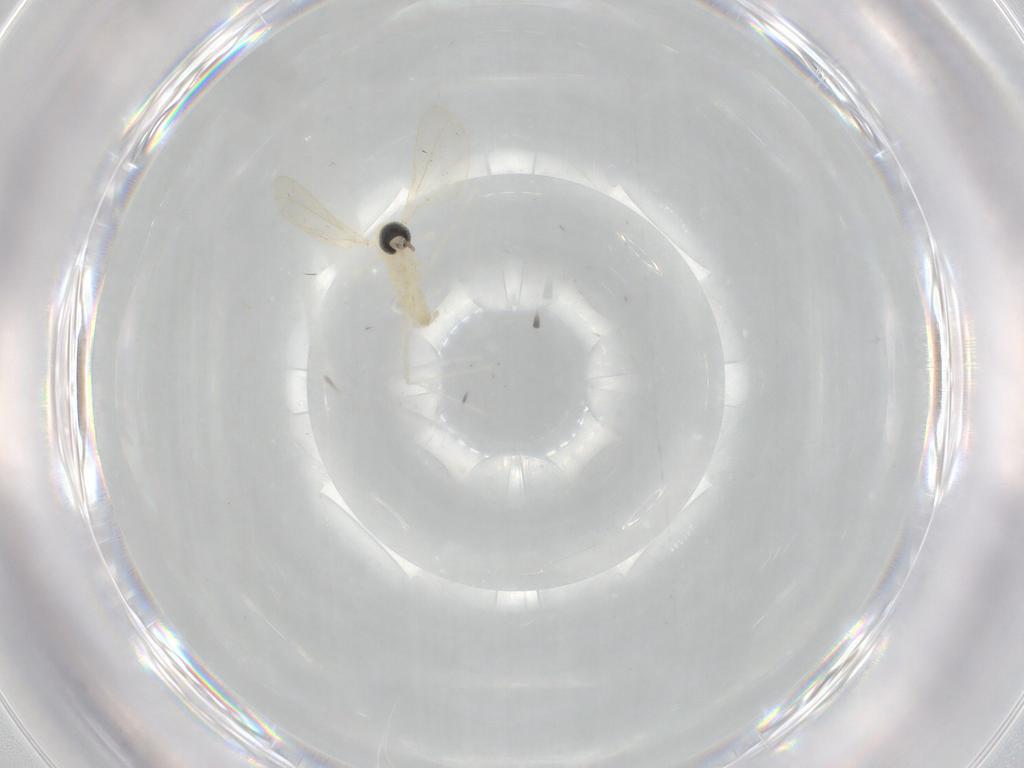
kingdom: Animalia
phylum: Arthropoda
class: Insecta
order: Diptera
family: Cecidomyiidae
